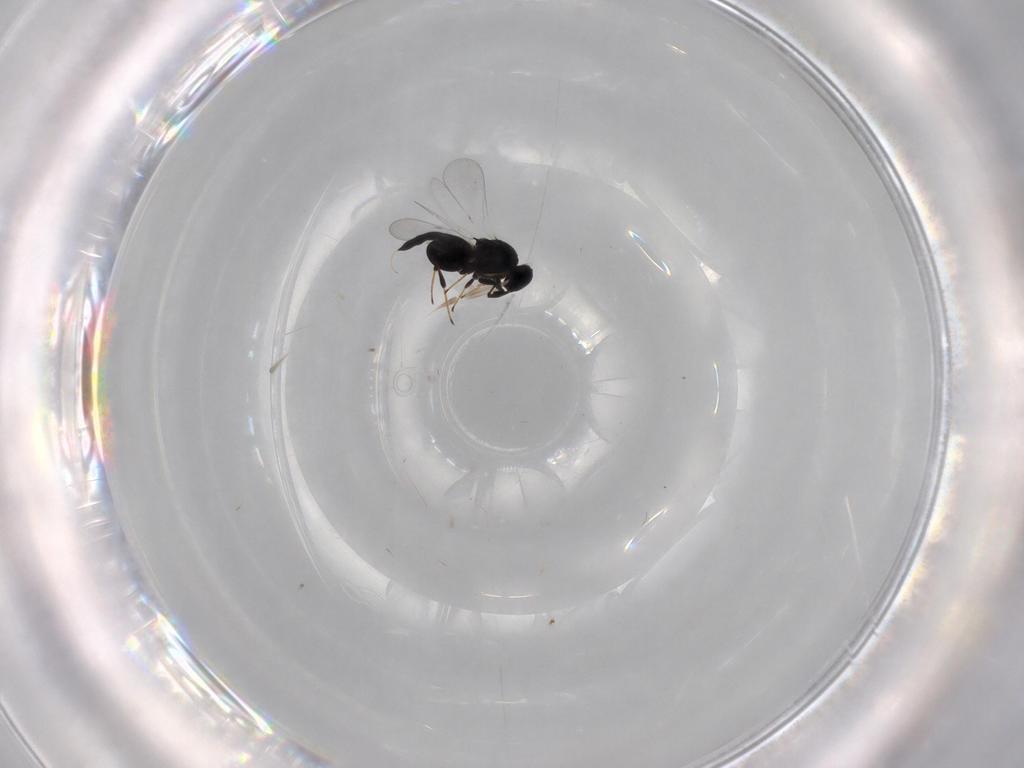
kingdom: Animalia
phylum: Arthropoda
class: Insecta
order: Hymenoptera
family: Platygastridae
